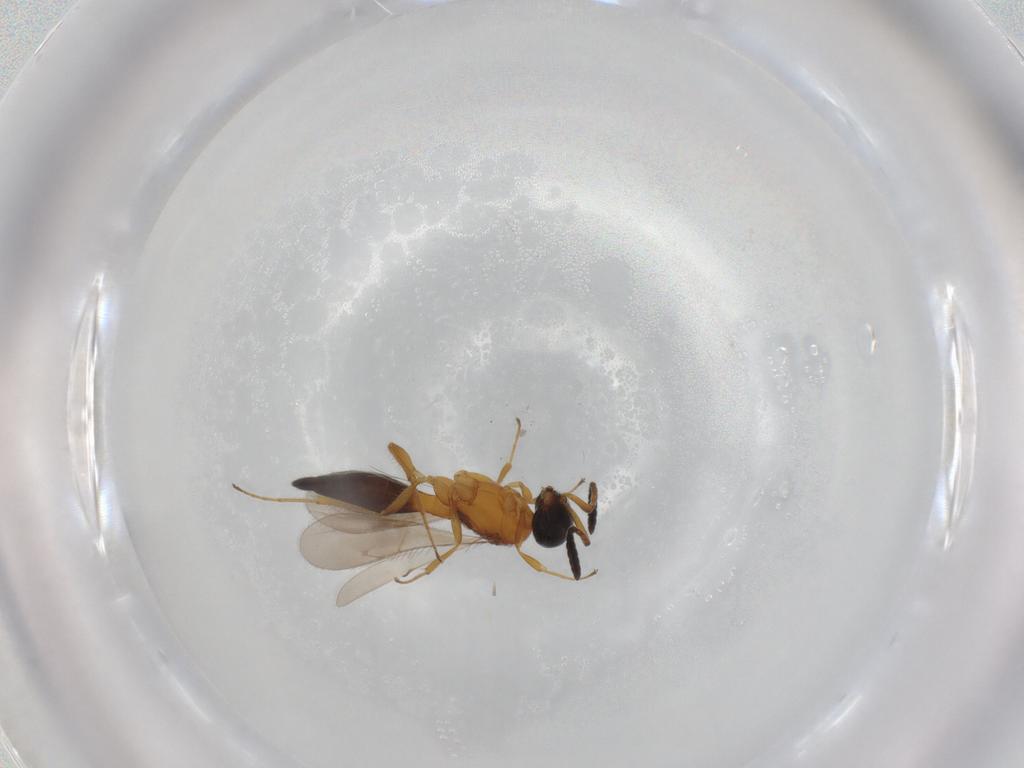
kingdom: Animalia
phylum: Arthropoda
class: Insecta
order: Hymenoptera
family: Scelionidae
